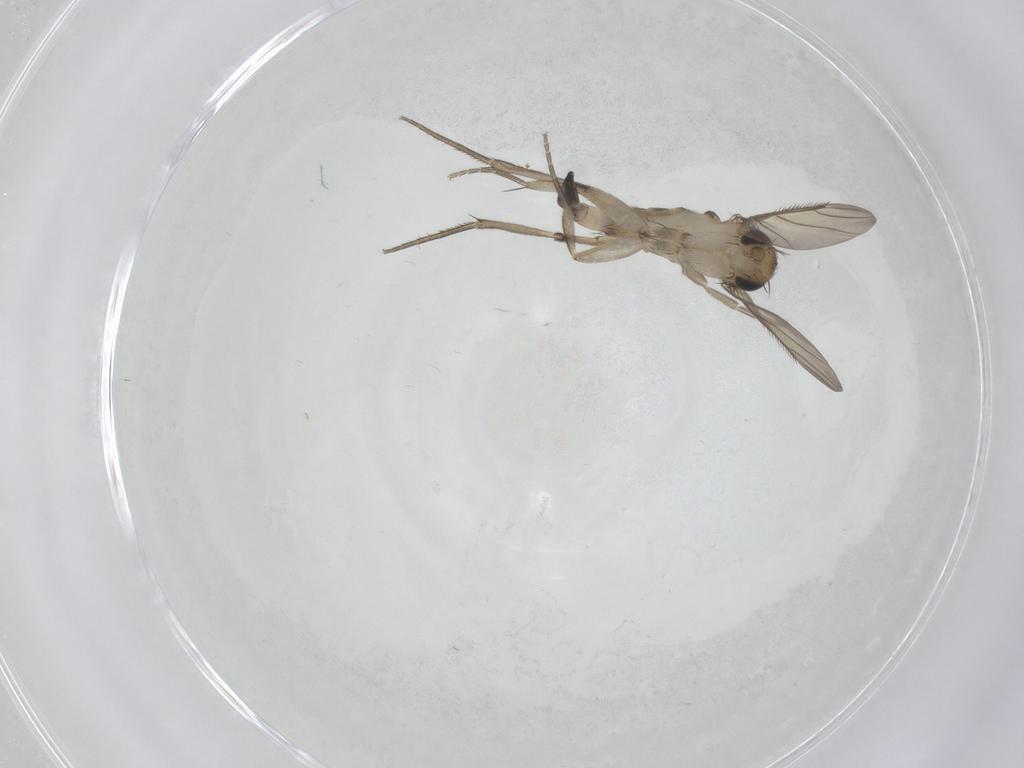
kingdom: Animalia
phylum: Arthropoda
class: Insecta
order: Diptera
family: Phoridae
